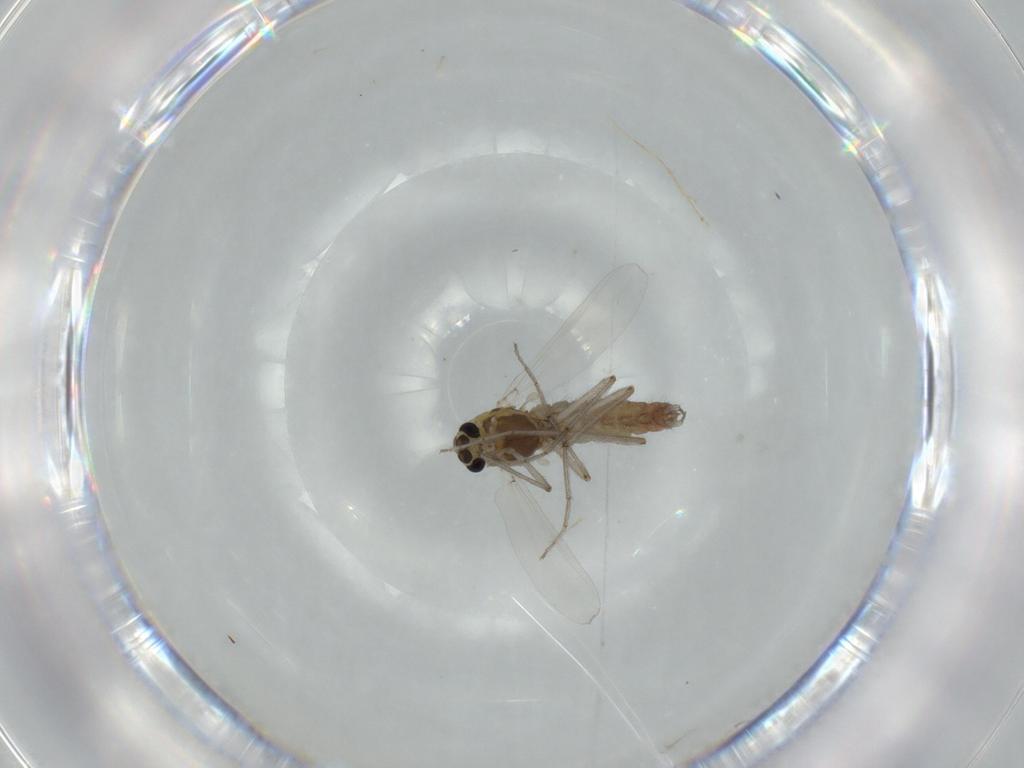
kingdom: Animalia
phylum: Arthropoda
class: Insecta
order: Diptera
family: Chironomidae
